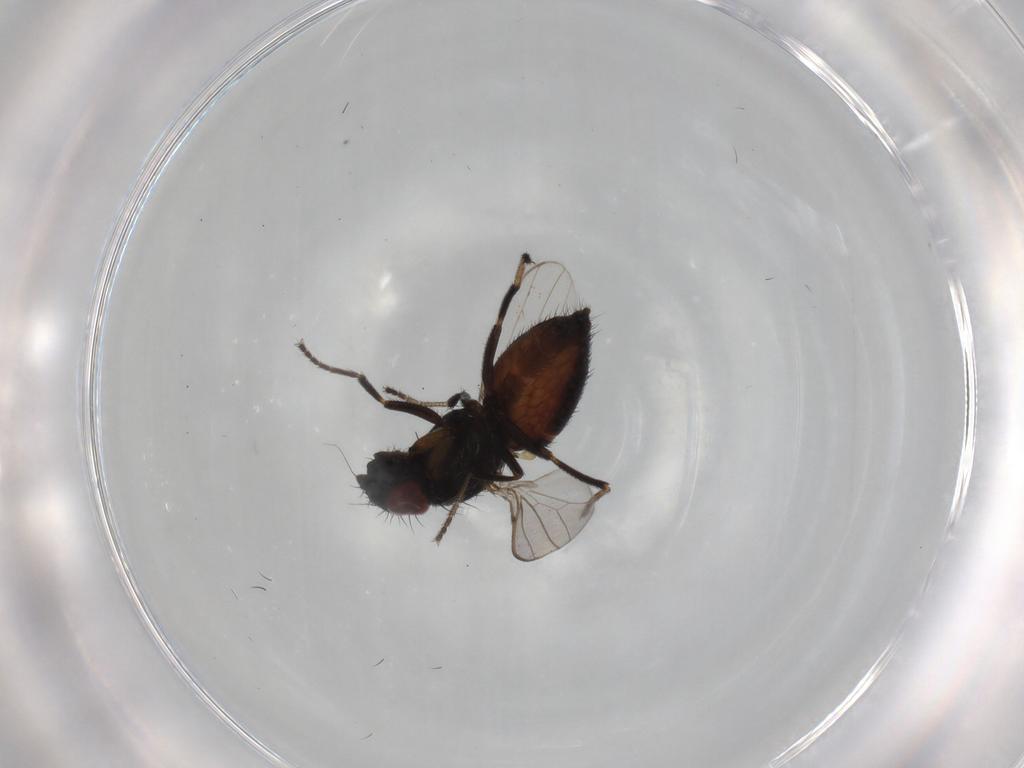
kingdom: Animalia
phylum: Arthropoda
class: Insecta
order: Diptera
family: Milichiidae
